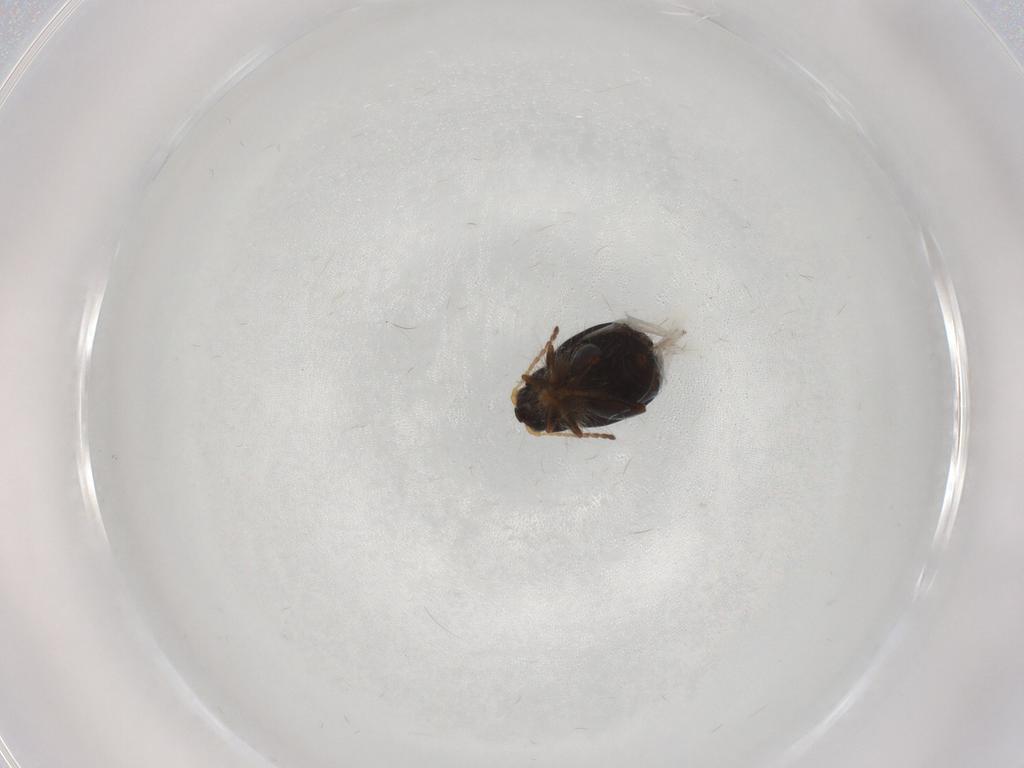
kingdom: Animalia
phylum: Arthropoda
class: Insecta
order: Coleoptera
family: Chrysomelidae
